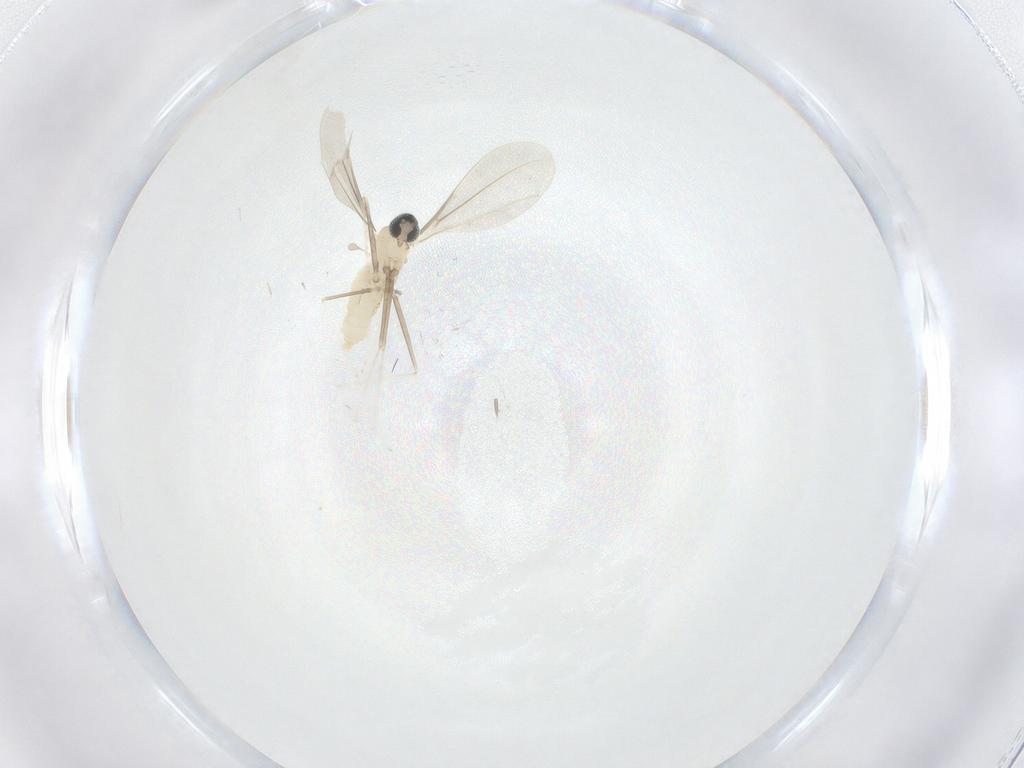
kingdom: Animalia
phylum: Arthropoda
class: Insecta
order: Diptera
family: Cecidomyiidae
